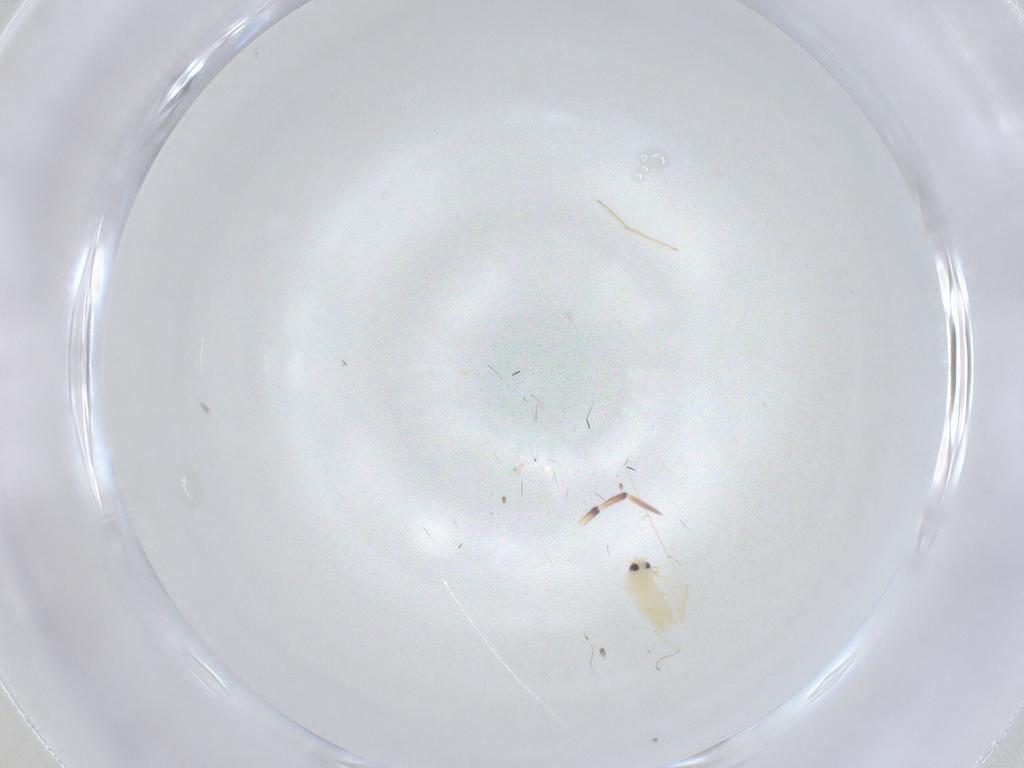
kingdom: Animalia
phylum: Arthropoda
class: Insecta
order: Hemiptera
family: Aleyrodidae
